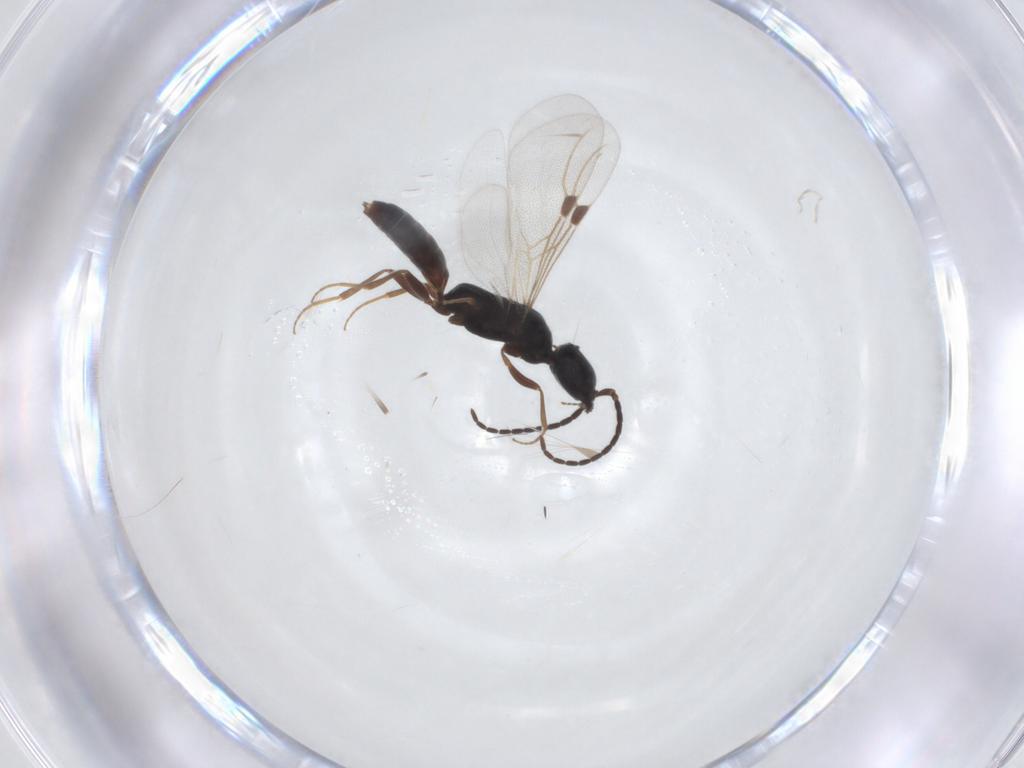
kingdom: Animalia
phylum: Arthropoda
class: Insecta
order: Hymenoptera
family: Bethylidae
